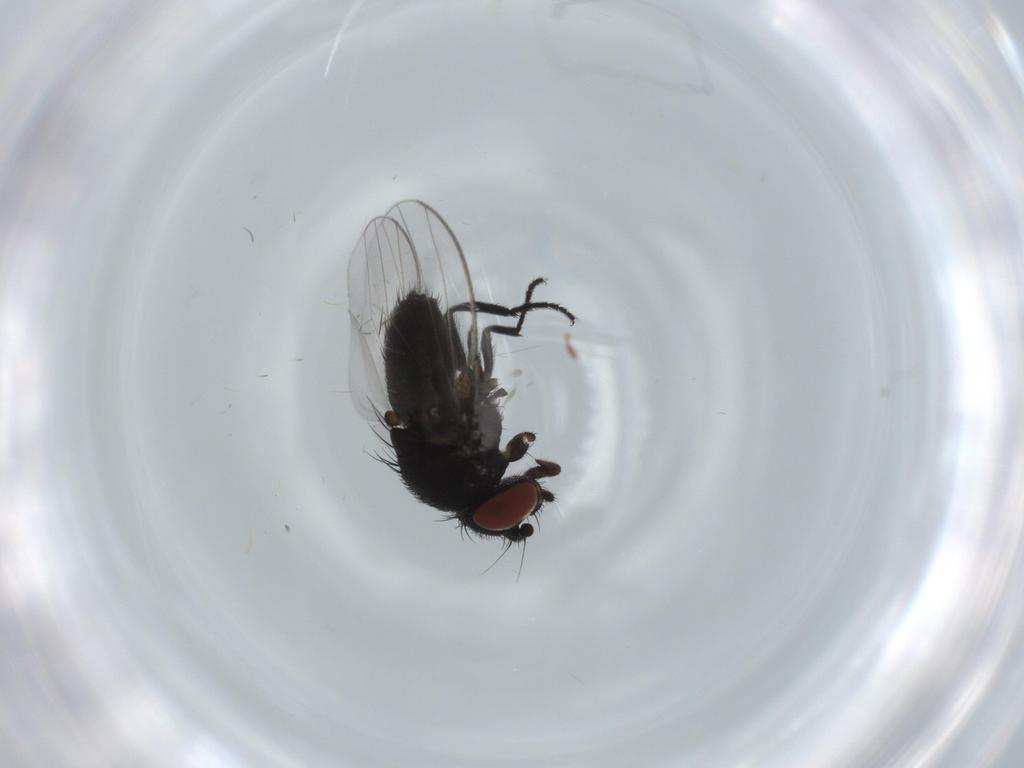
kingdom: Animalia
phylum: Arthropoda
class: Insecta
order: Diptera
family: Milichiidae
